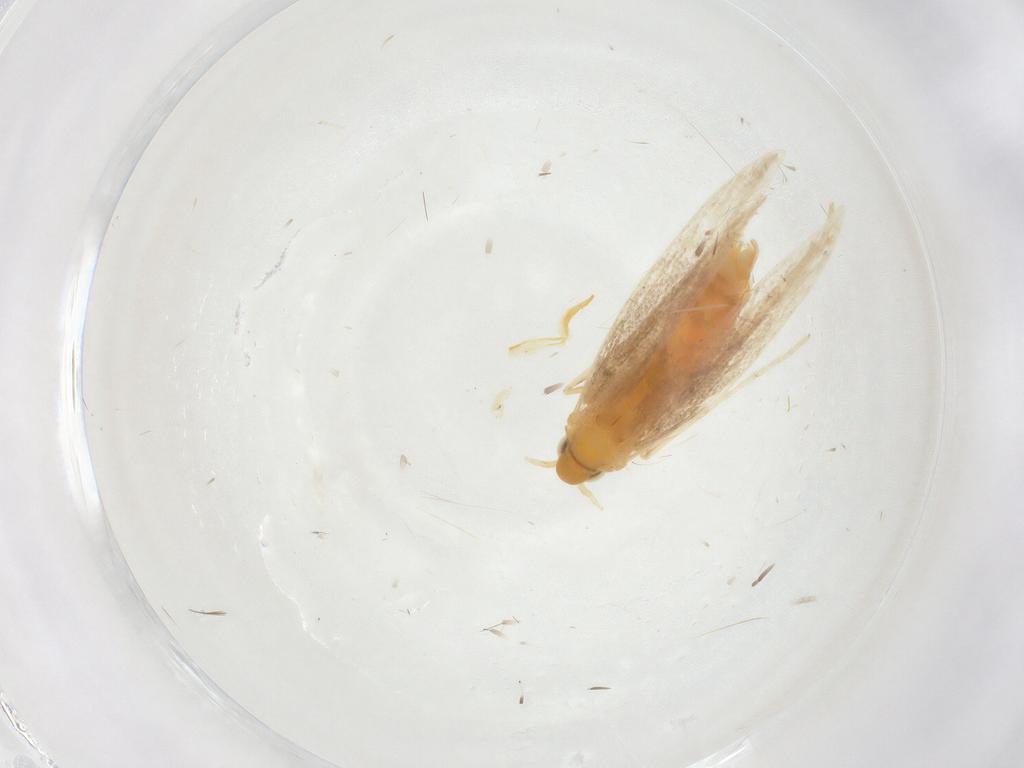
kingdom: Animalia
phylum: Arthropoda
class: Insecta
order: Lepidoptera
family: Gracillariidae
